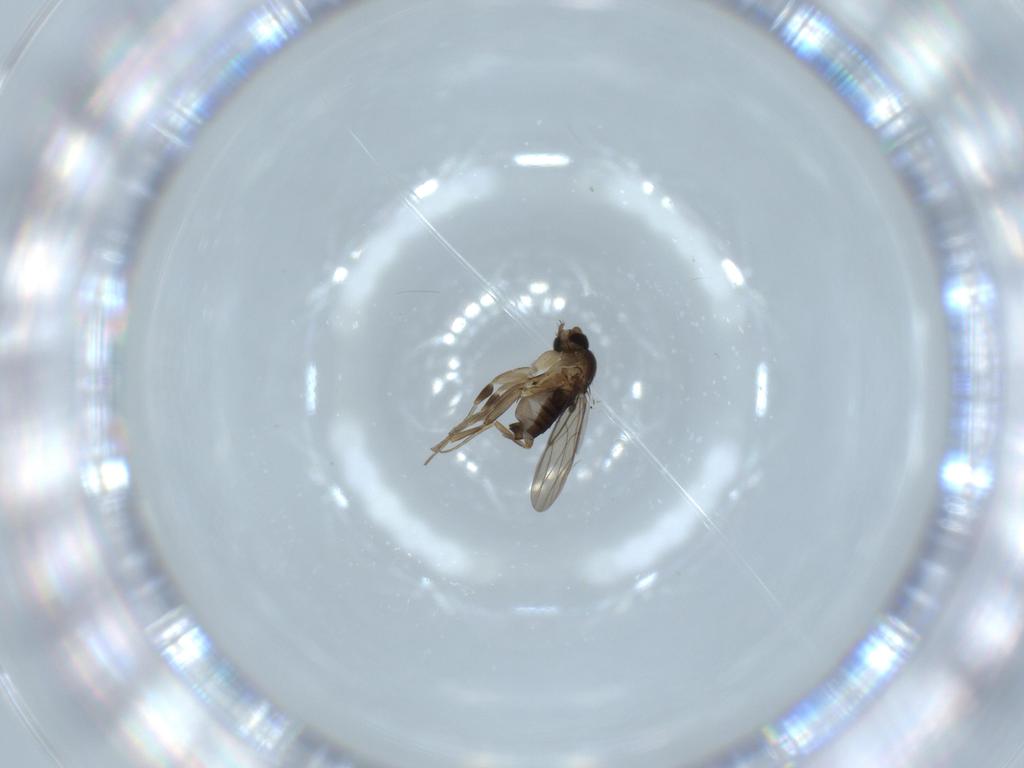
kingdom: Animalia
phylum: Arthropoda
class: Insecta
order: Diptera
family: Phoridae
